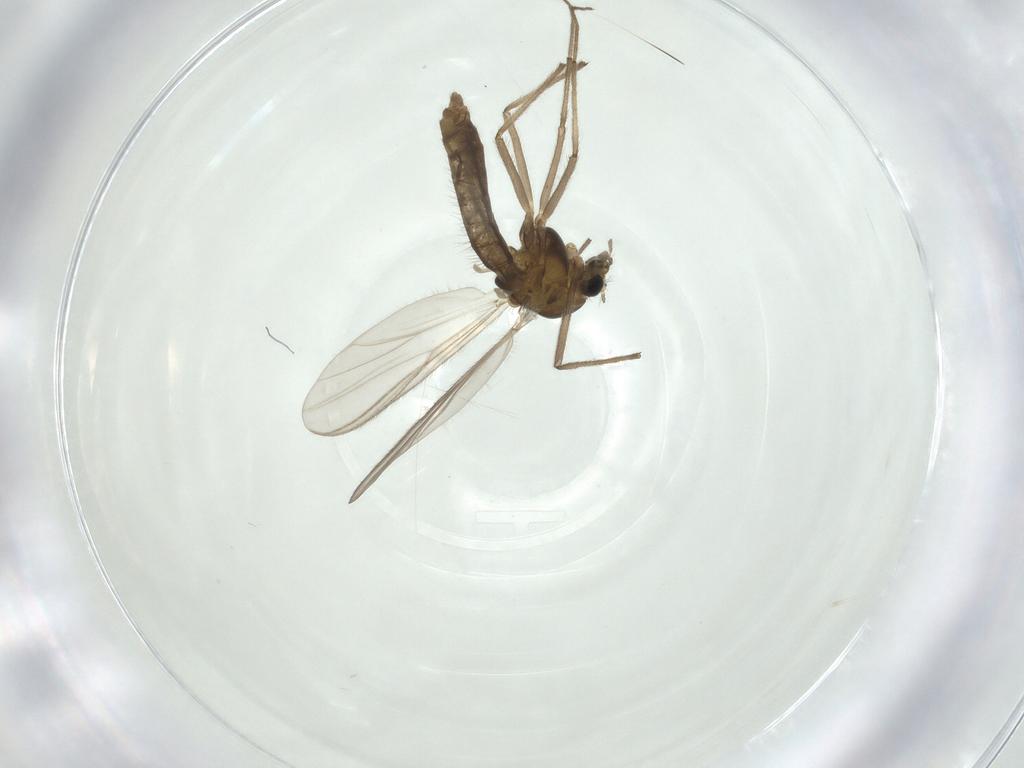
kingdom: Animalia
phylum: Arthropoda
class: Insecta
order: Diptera
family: Chironomidae
